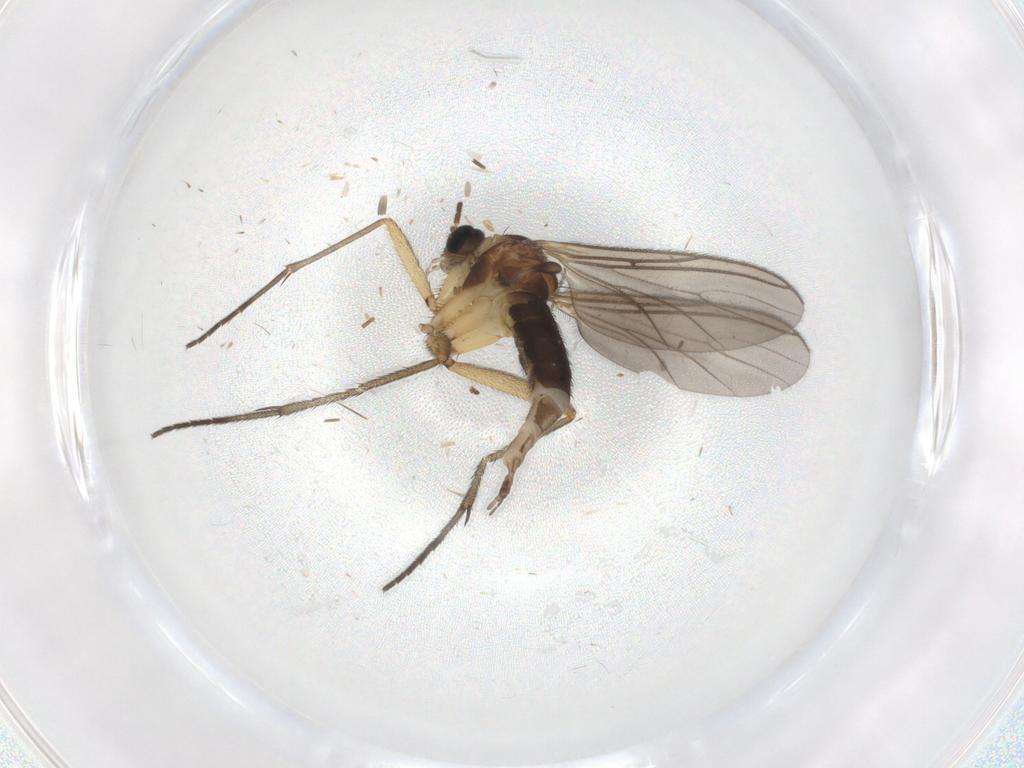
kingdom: Animalia
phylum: Arthropoda
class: Insecta
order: Diptera
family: Sciaridae
